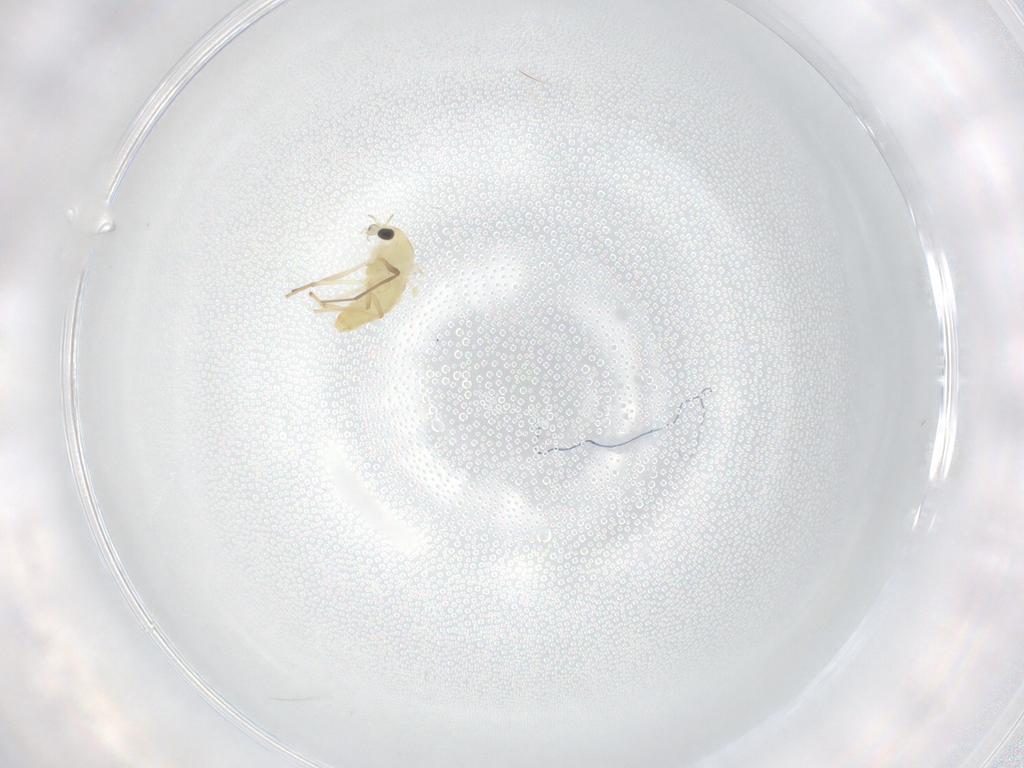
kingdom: Animalia
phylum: Arthropoda
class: Insecta
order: Diptera
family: Chironomidae
